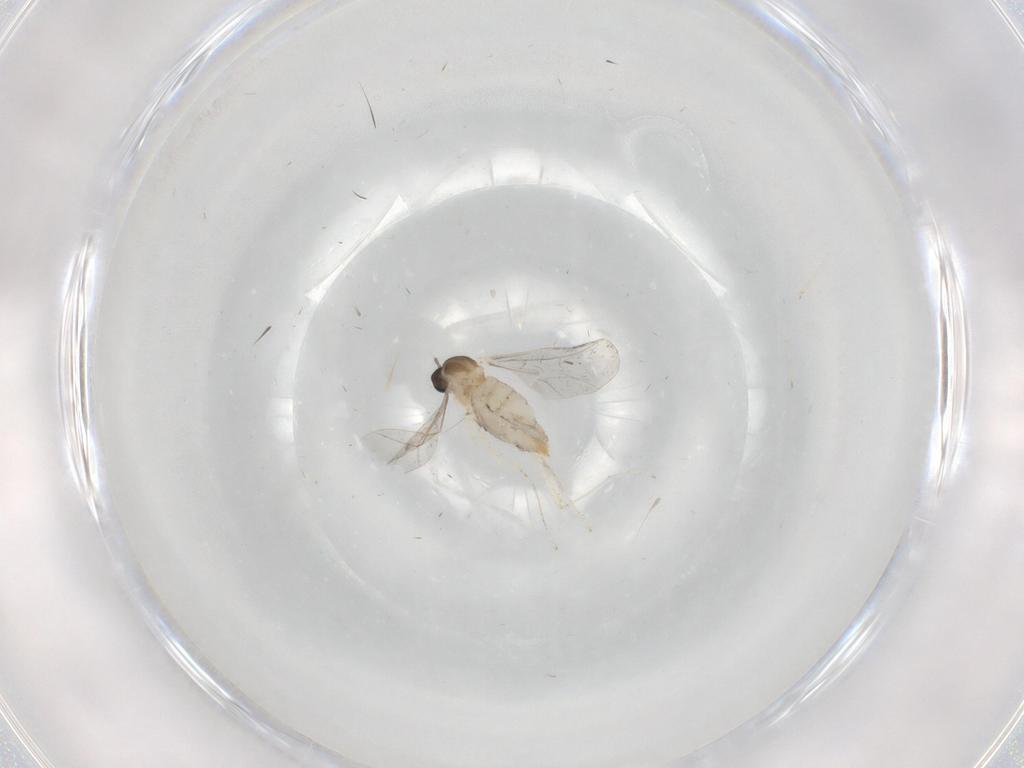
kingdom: Animalia
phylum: Arthropoda
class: Insecta
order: Diptera
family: Cecidomyiidae
